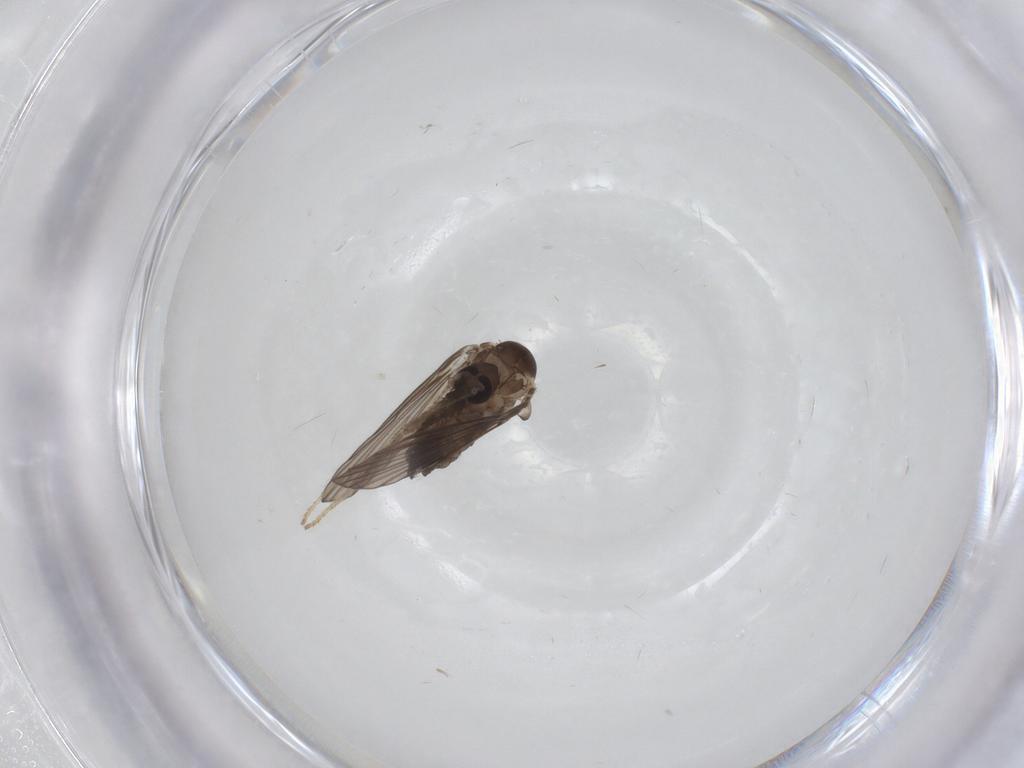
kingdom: Animalia
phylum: Arthropoda
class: Insecta
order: Diptera
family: Psychodidae
